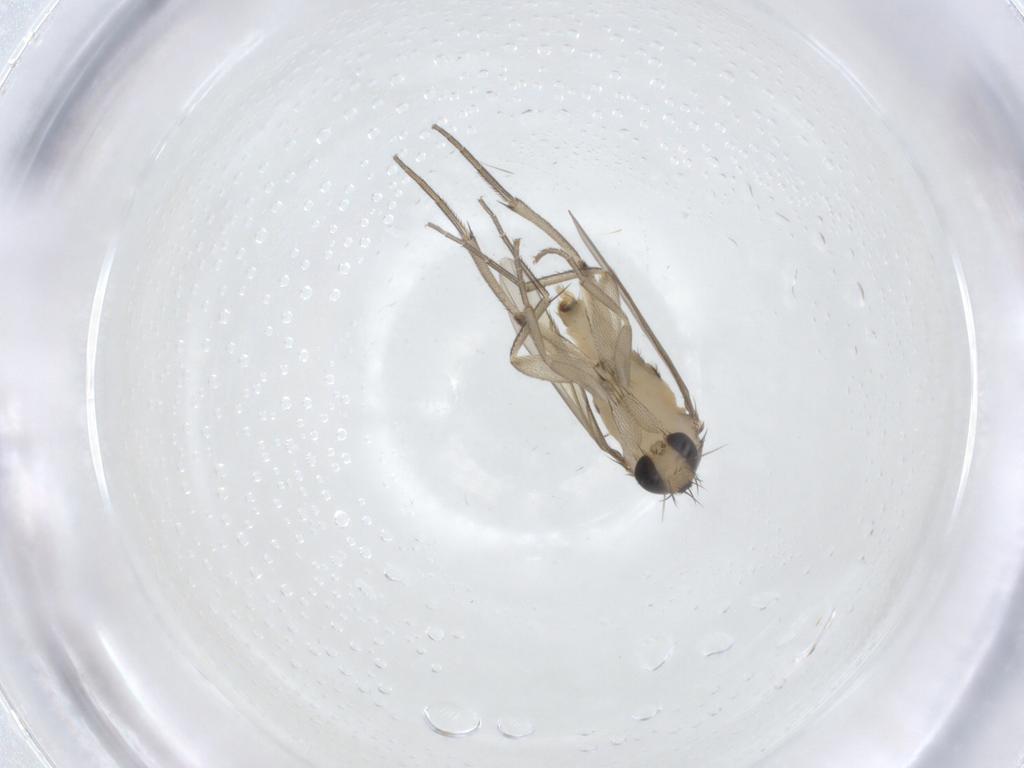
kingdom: Animalia
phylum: Arthropoda
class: Insecta
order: Diptera
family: Phoridae
